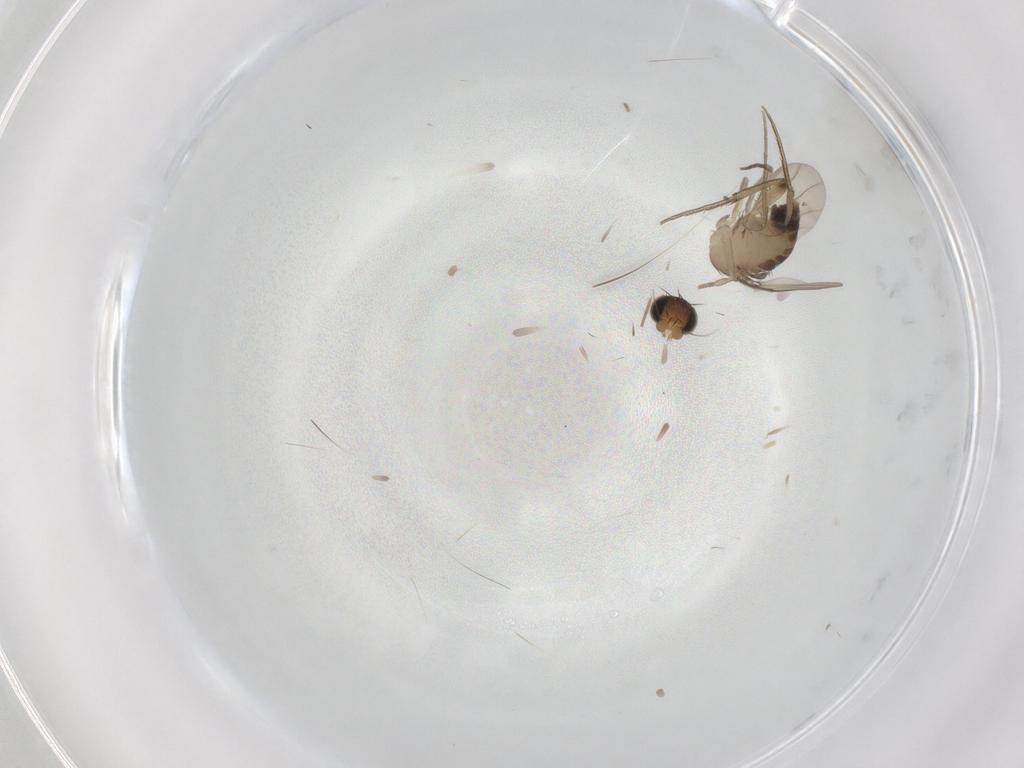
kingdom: Animalia
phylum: Arthropoda
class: Insecta
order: Diptera
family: Phoridae
